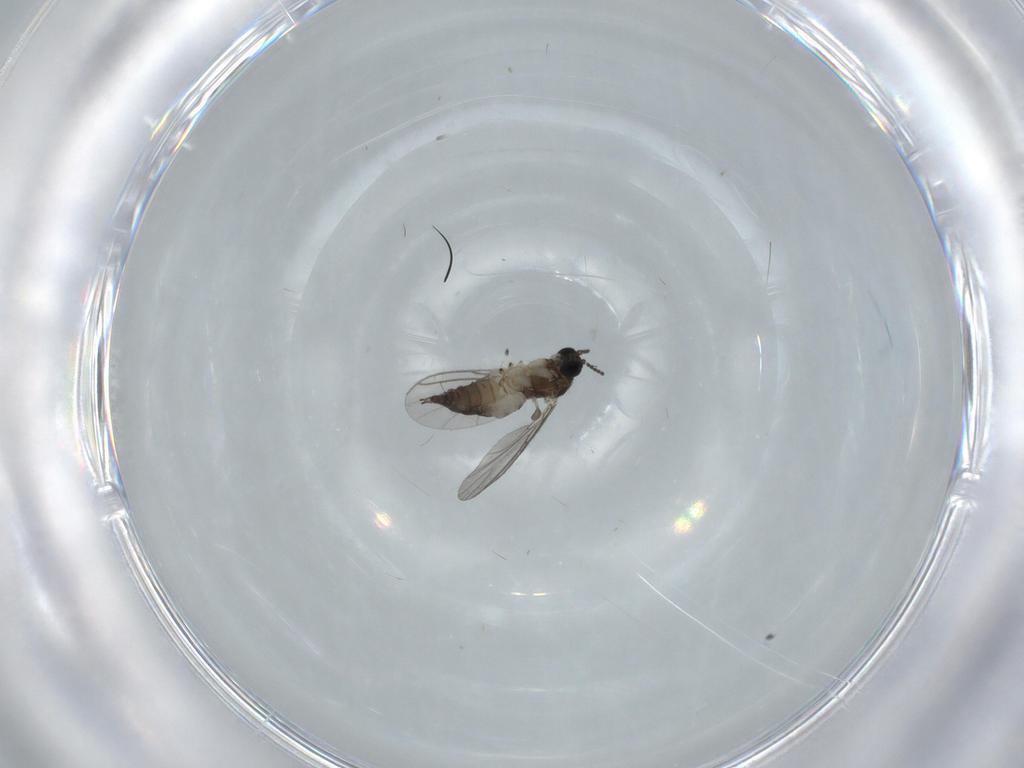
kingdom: Animalia
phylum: Arthropoda
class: Insecta
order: Diptera
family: Sciaridae
